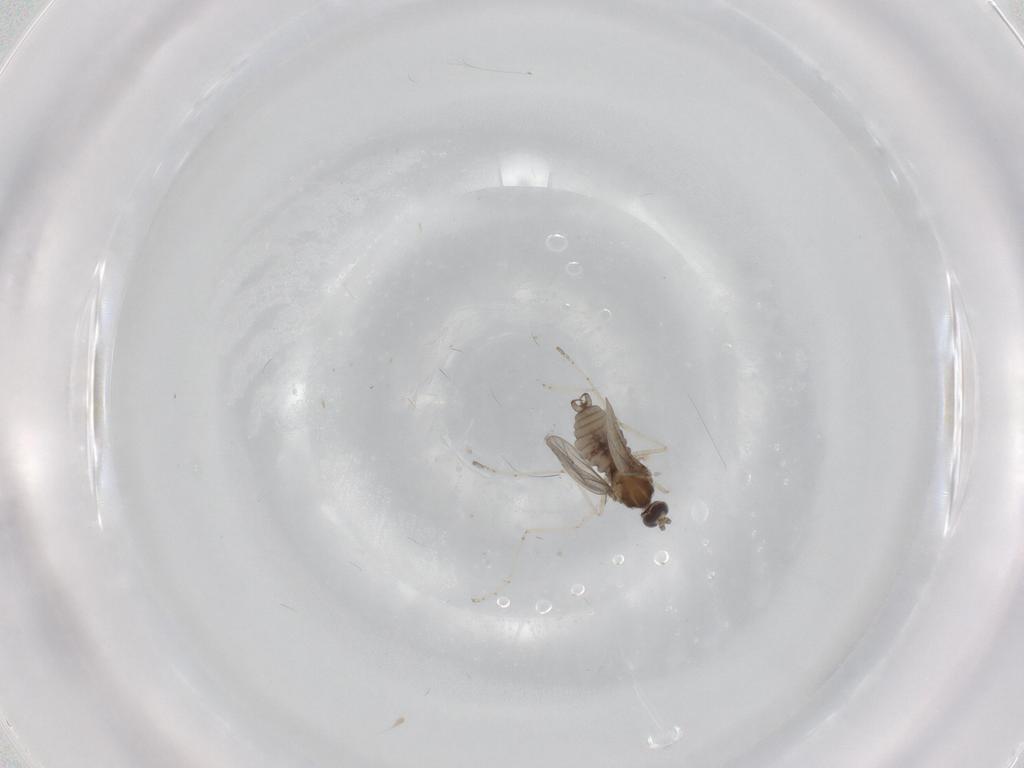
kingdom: Animalia
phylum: Arthropoda
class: Insecta
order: Diptera
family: Cecidomyiidae
